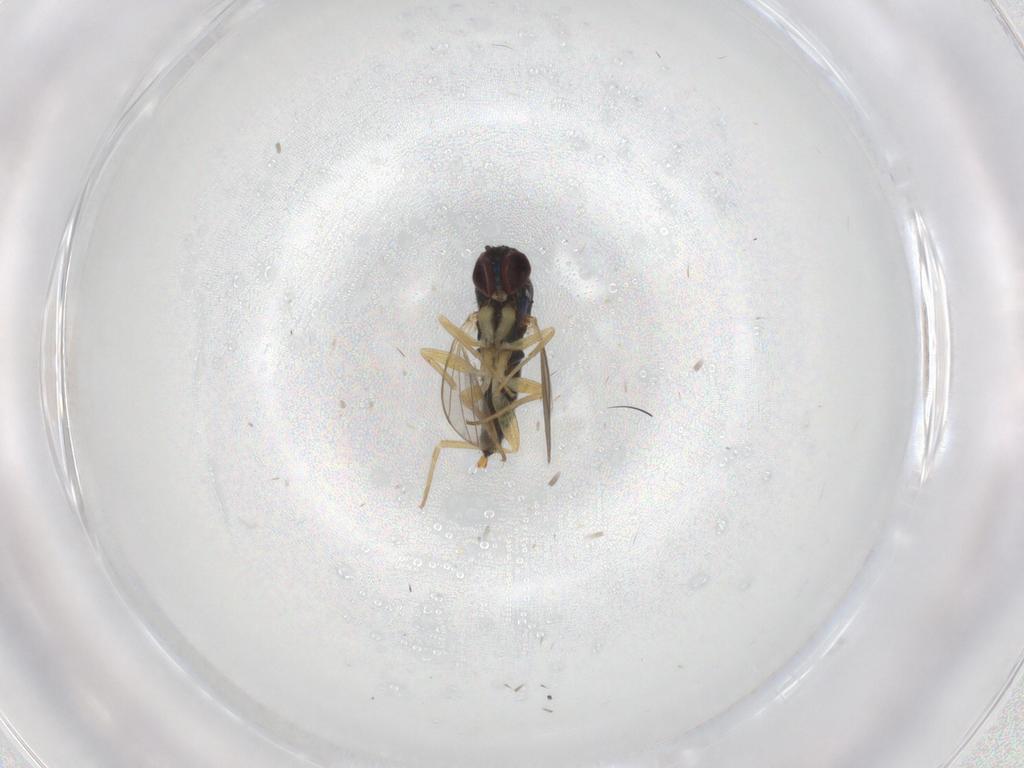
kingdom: Animalia
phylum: Arthropoda
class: Insecta
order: Diptera
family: Dolichopodidae
